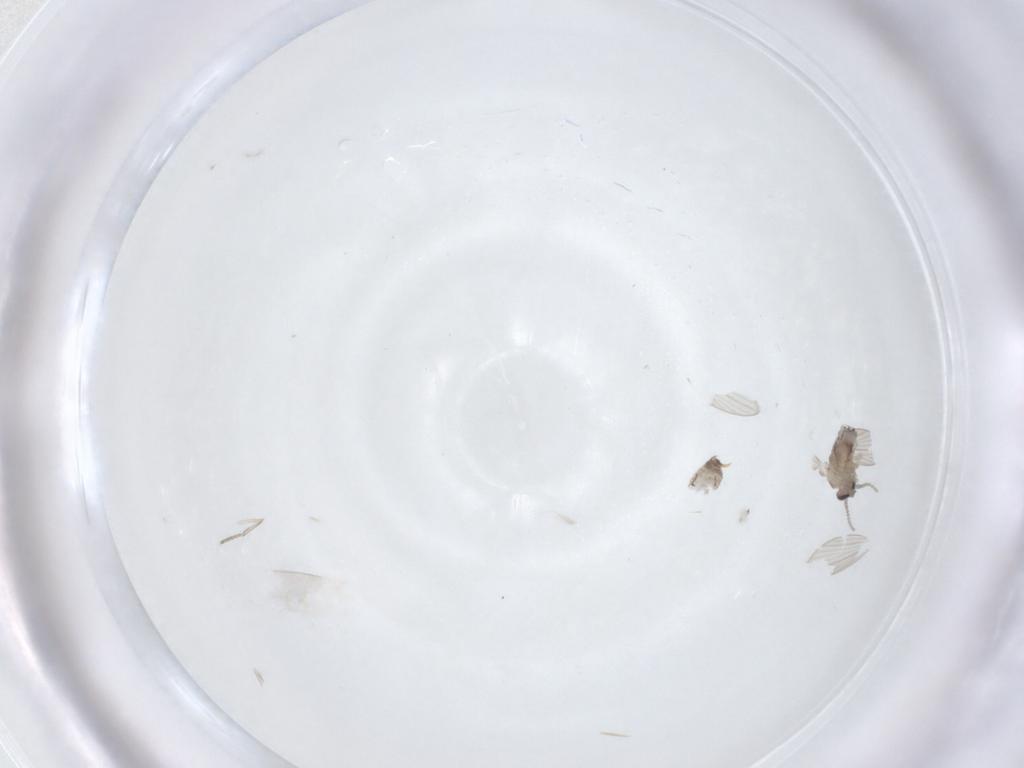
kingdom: Animalia
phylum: Arthropoda
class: Insecta
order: Diptera
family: Psychodidae
